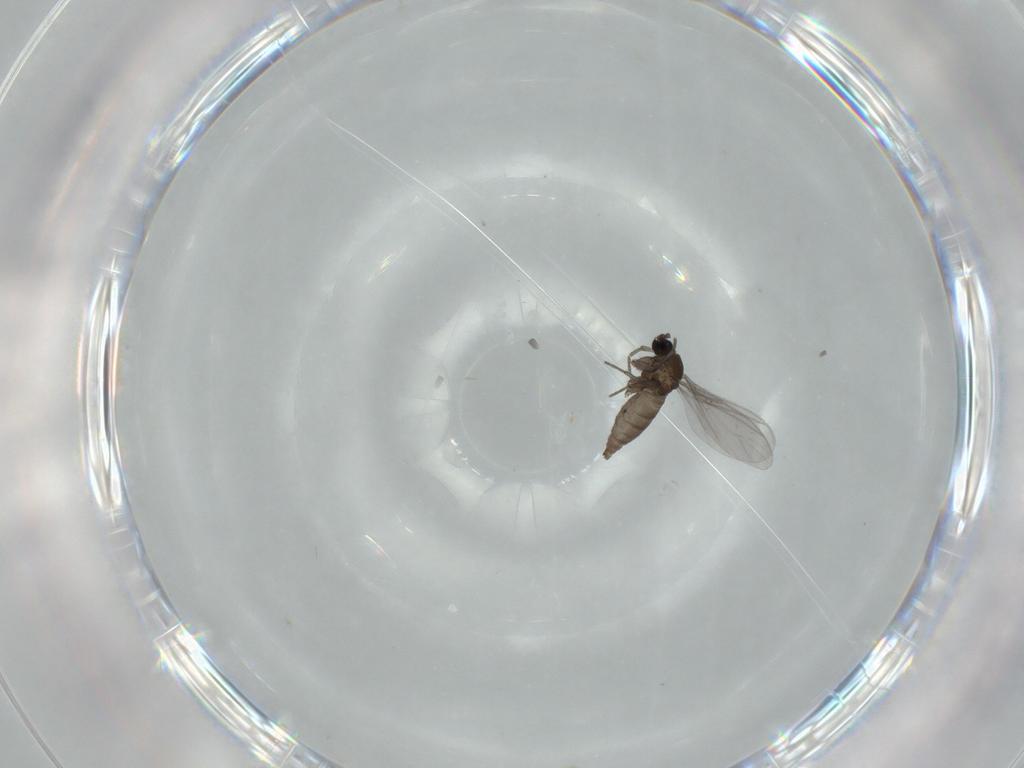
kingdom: Animalia
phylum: Arthropoda
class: Insecta
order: Diptera
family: Sciaridae
